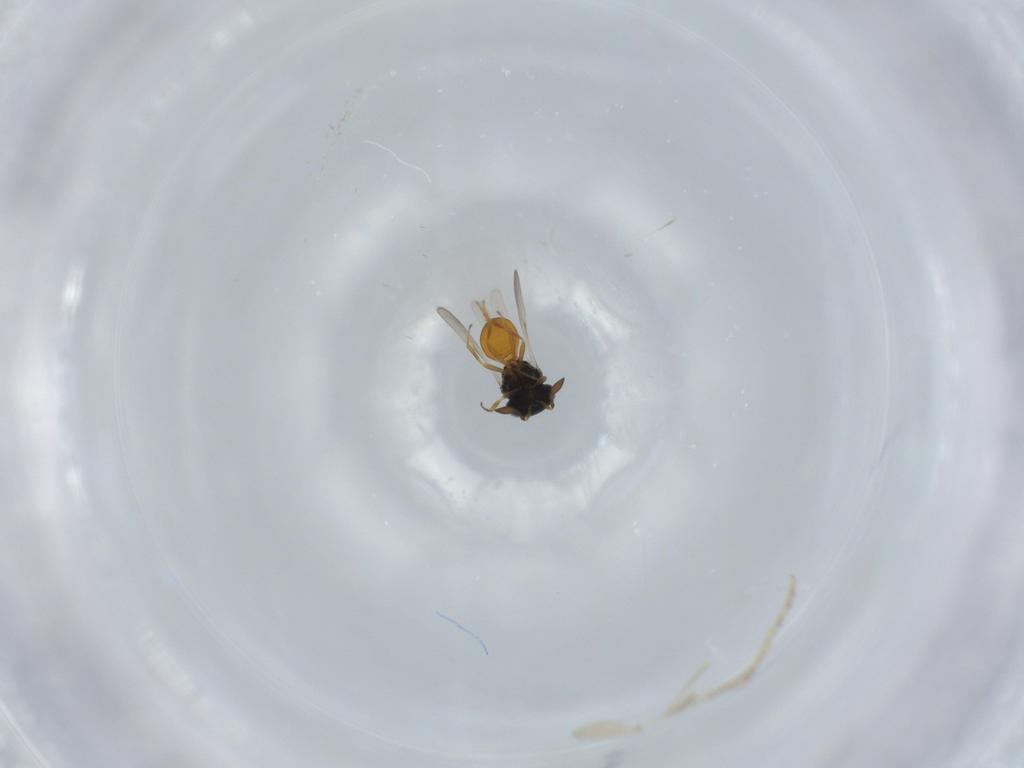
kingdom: Animalia
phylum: Arthropoda
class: Insecta
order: Hymenoptera
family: Scelionidae
